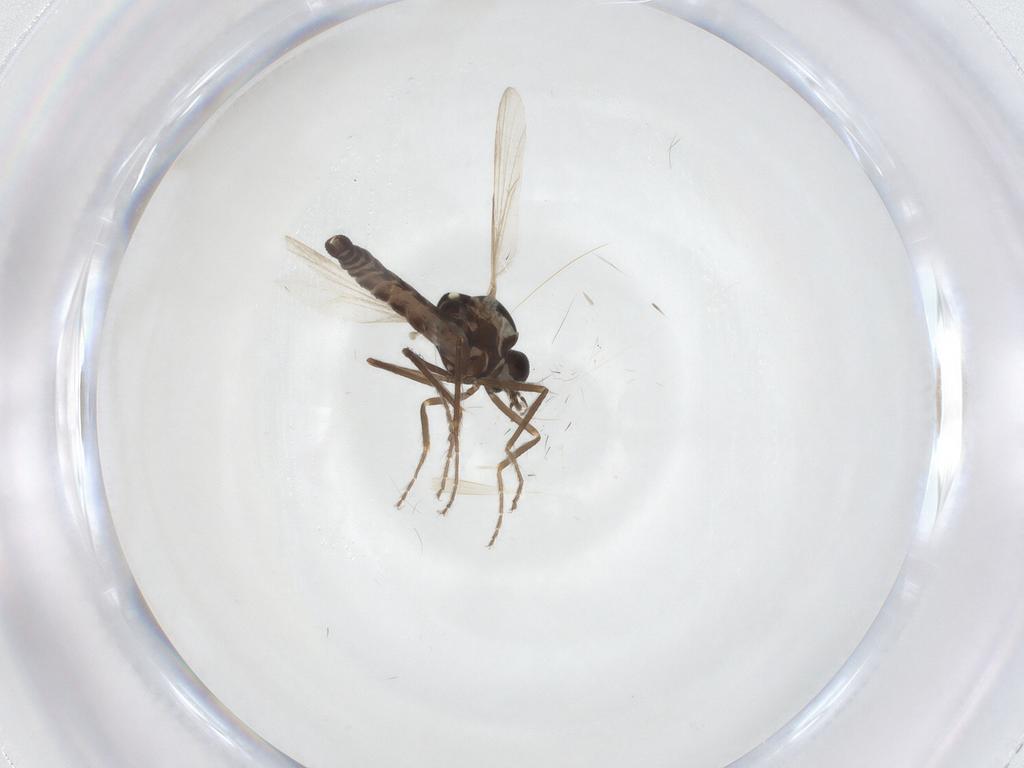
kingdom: Animalia
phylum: Arthropoda
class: Insecta
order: Diptera
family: Ceratopogonidae
